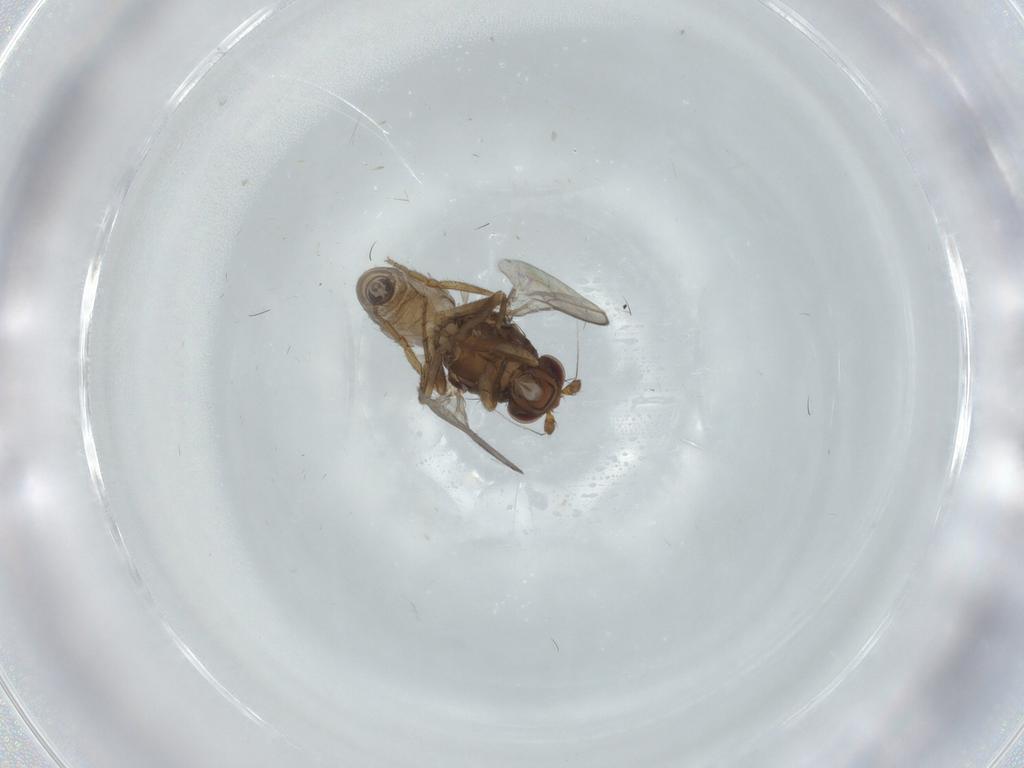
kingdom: Animalia
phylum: Arthropoda
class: Insecta
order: Diptera
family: Sphaeroceridae
